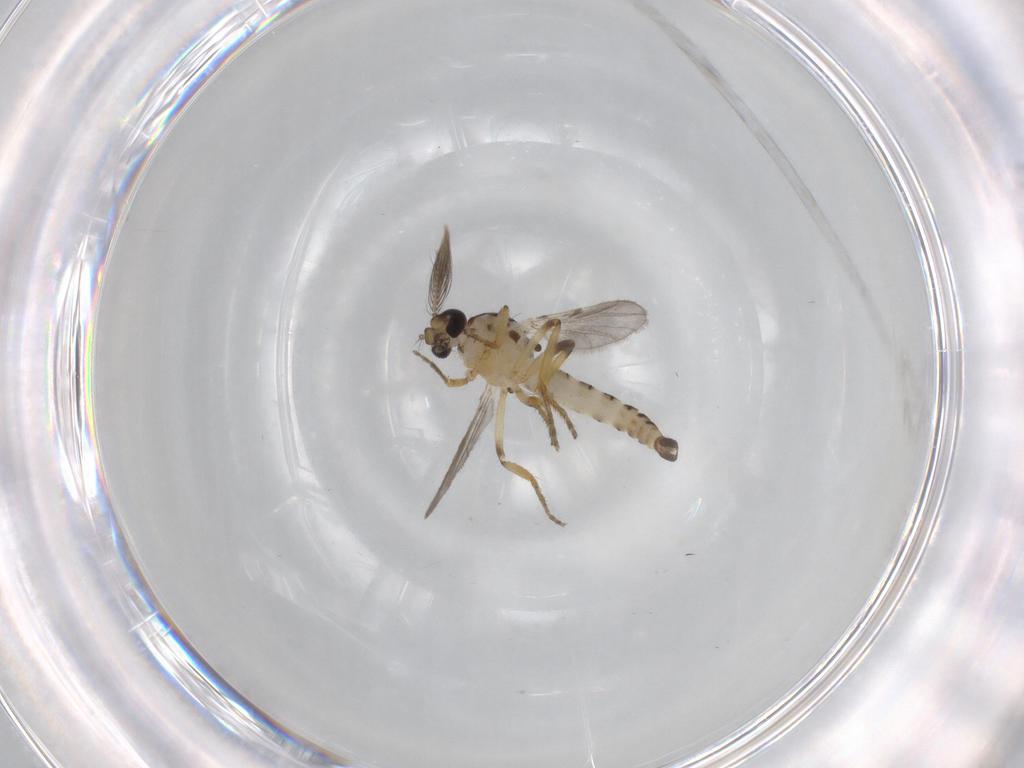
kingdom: Animalia
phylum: Arthropoda
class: Insecta
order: Diptera
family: Ceratopogonidae
